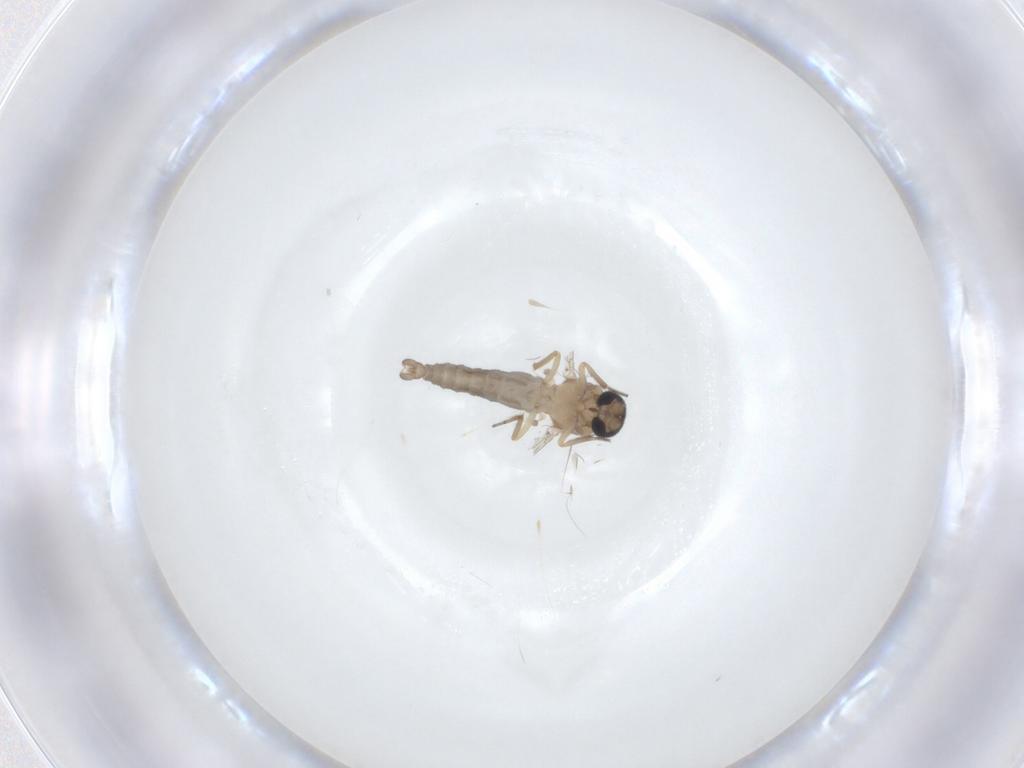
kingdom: Animalia
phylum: Arthropoda
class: Insecta
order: Diptera
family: Ceratopogonidae
